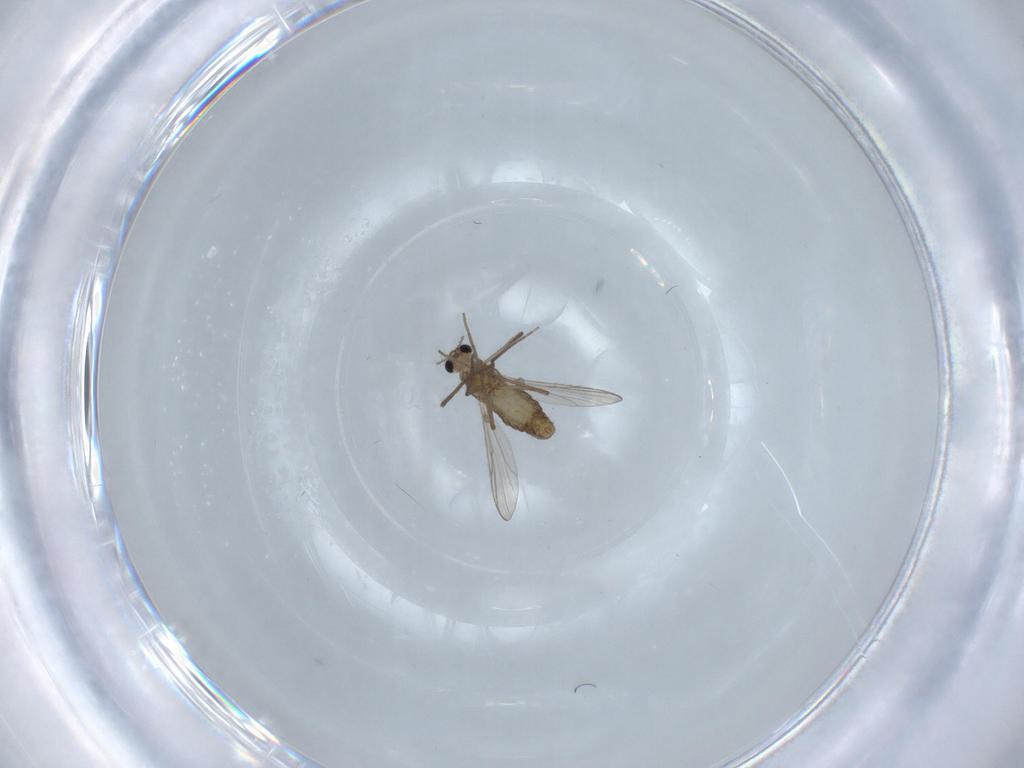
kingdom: Animalia
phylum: Arthropoda
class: Insecta
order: Diptera
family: Chironomidae
